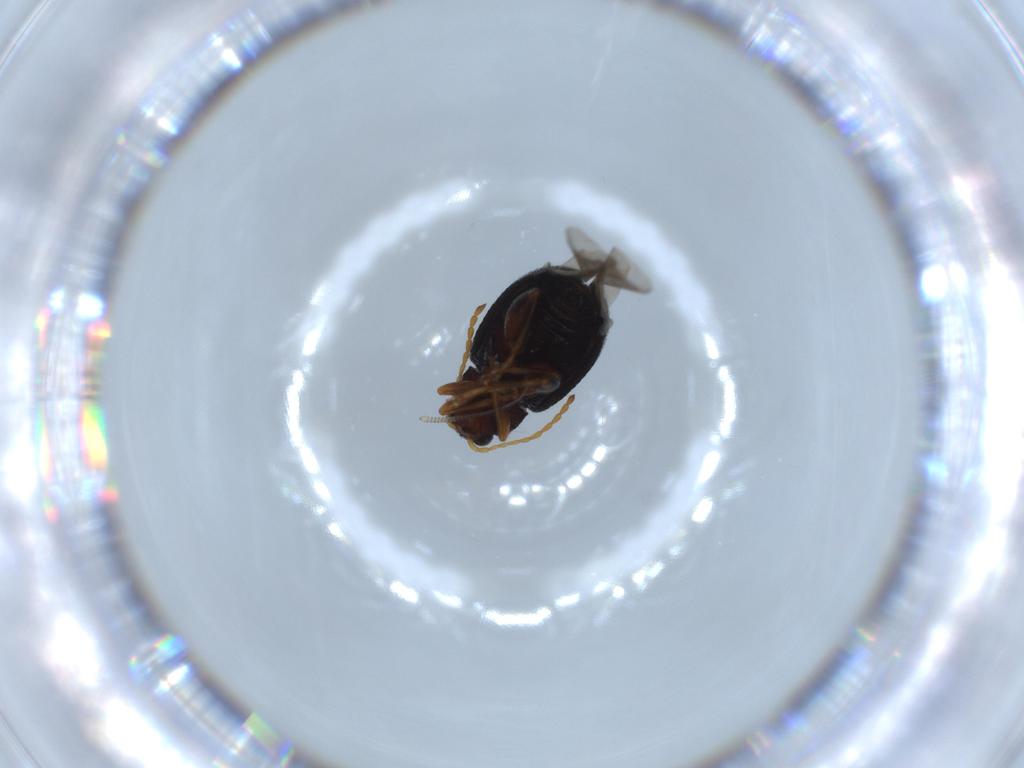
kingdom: Animalia
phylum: Arthropoda
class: Insecta
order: Coleoptera
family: Chrysomelidae
